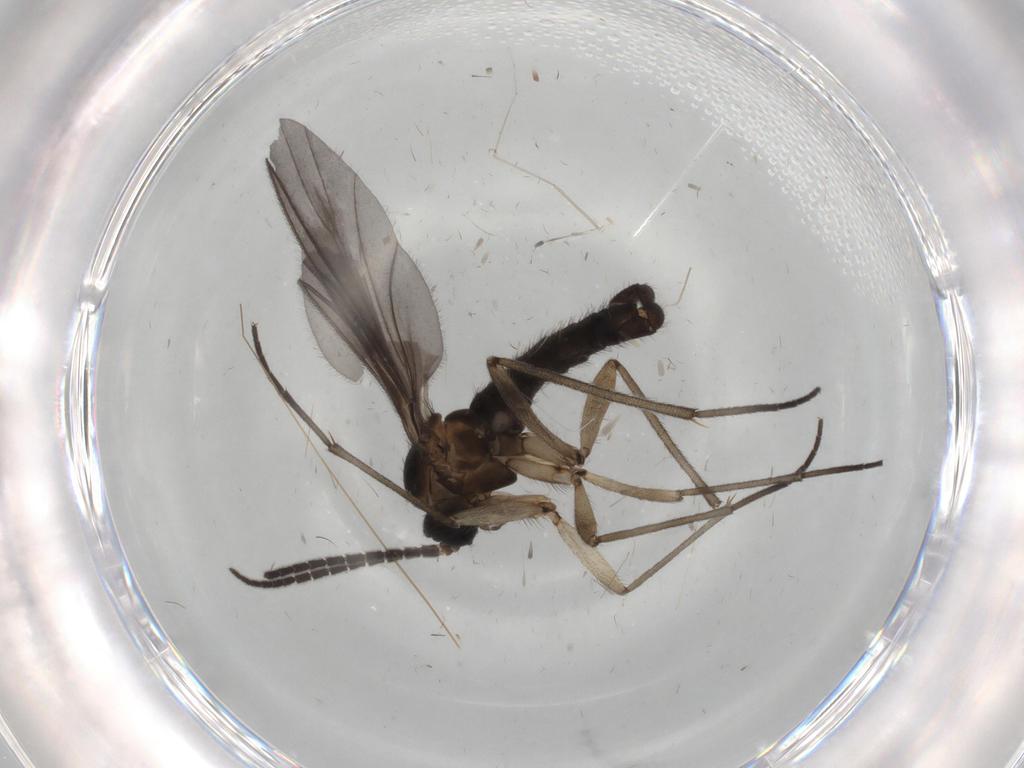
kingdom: Animalia
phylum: Arthropoda
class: Insecta
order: Diptera
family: Sciaridae
